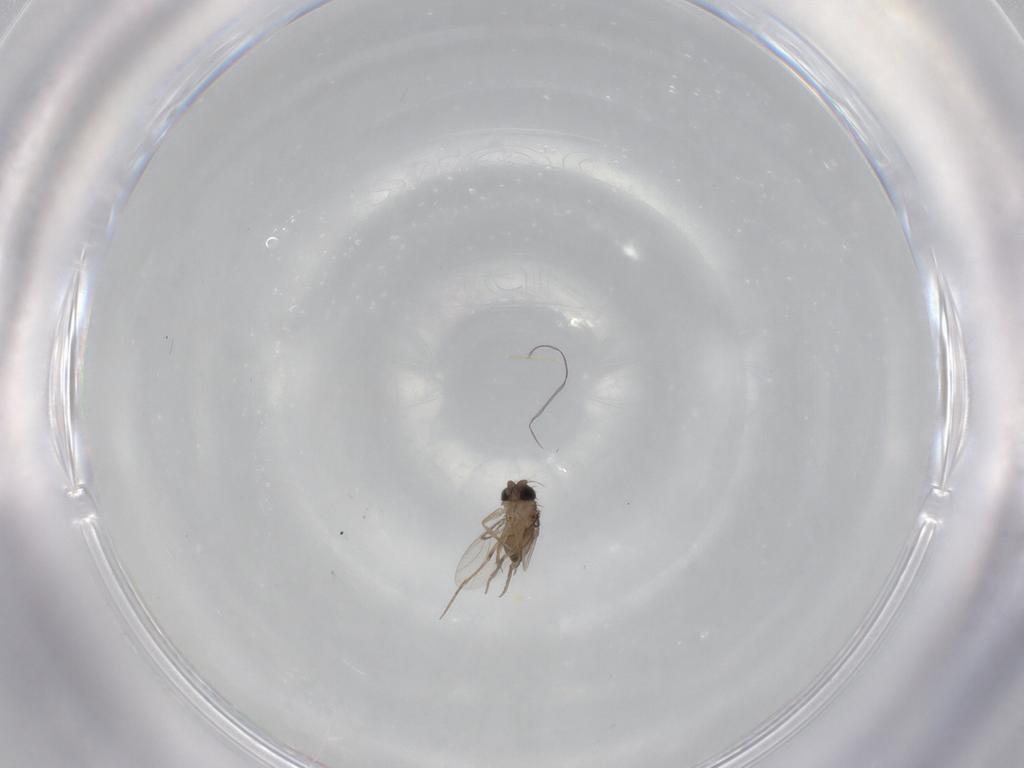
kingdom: Animalia
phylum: Arthropoda
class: Insecta
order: Diptera
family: Phoridae
